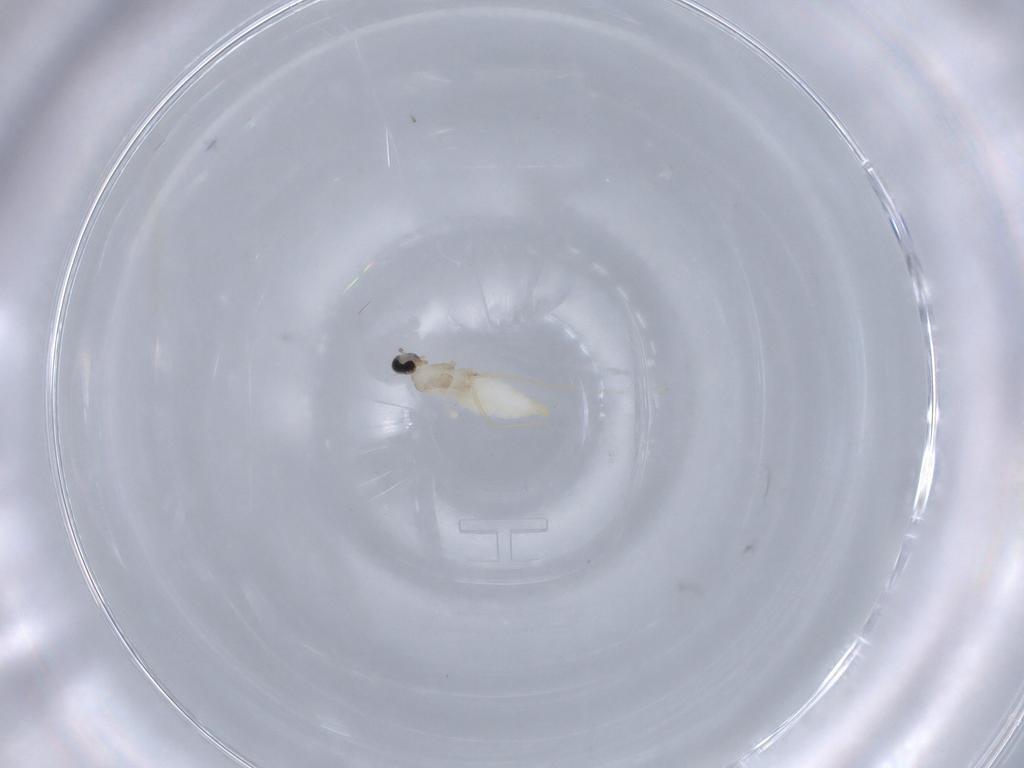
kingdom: Animalia
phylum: Arthropoda
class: Insecta
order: Diptera
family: Cecidomyiidae
